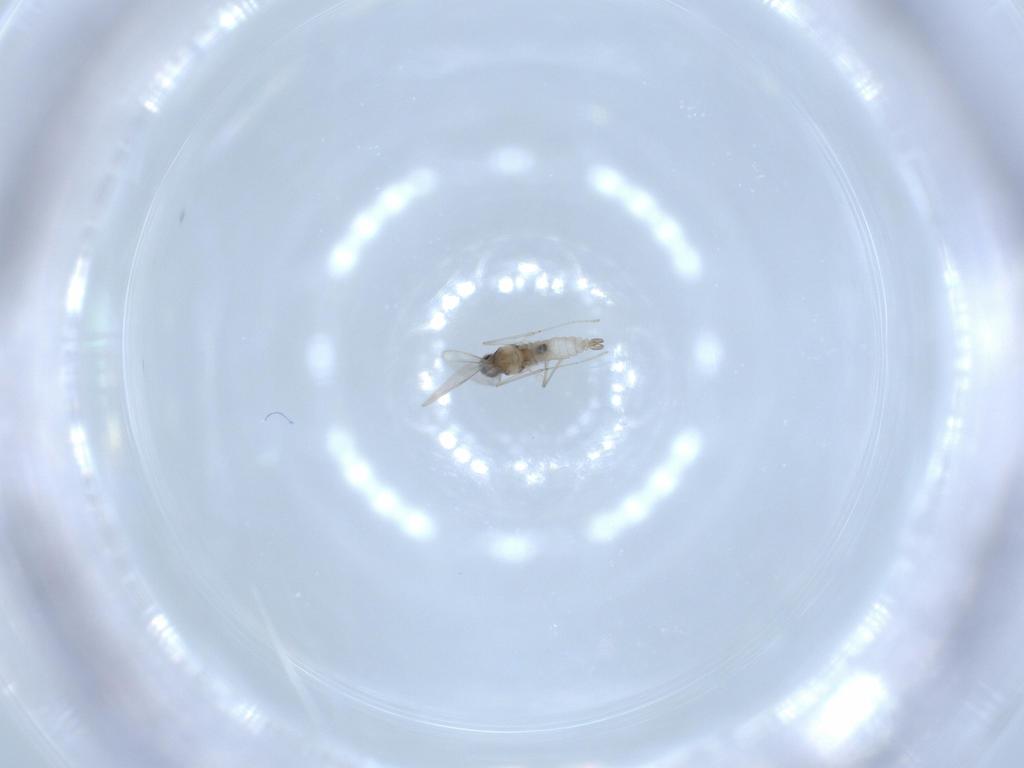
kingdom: Animalia
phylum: Arthropoda
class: Insecta
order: Diptera
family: Cecidomyiidae
